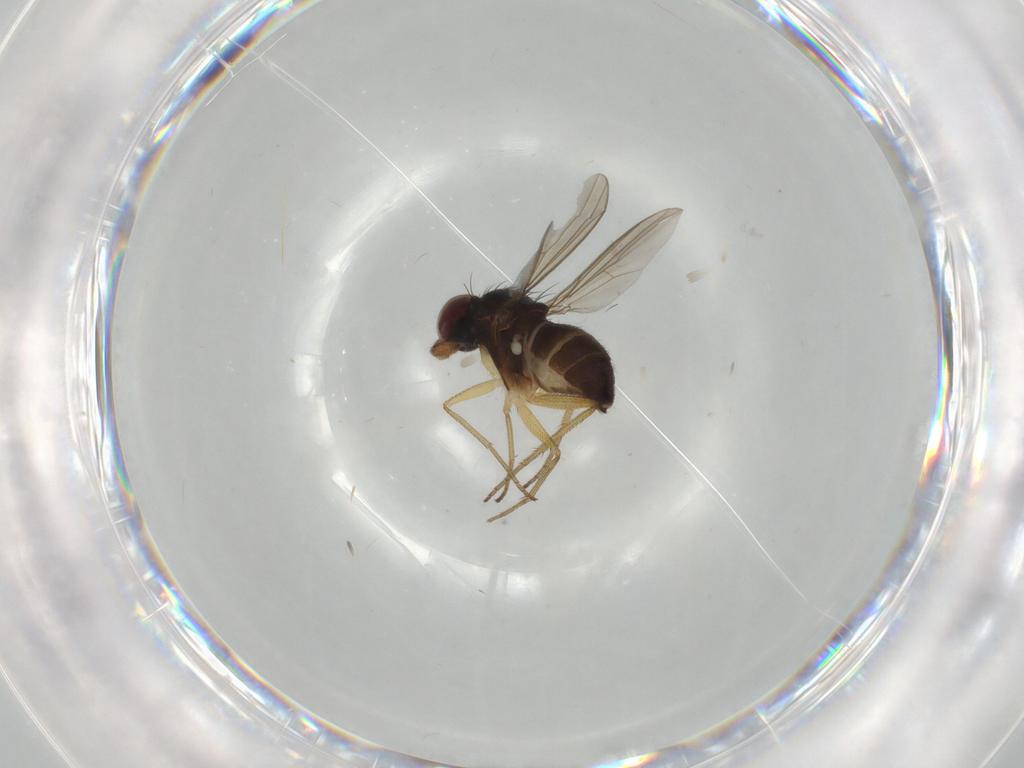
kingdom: Animalia
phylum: Arthropoda
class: Insecta
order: Diptera
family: Dolichopodidae
